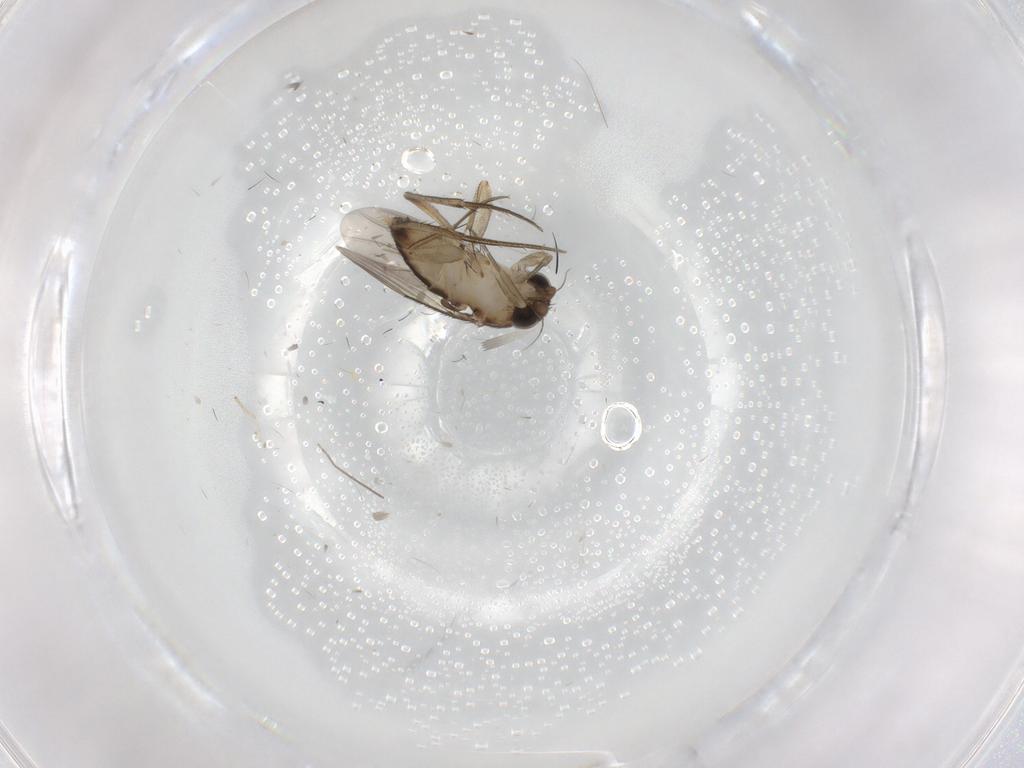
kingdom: Animalia
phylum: Arthropoda
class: Insecta
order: Diptera
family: Phoridae
